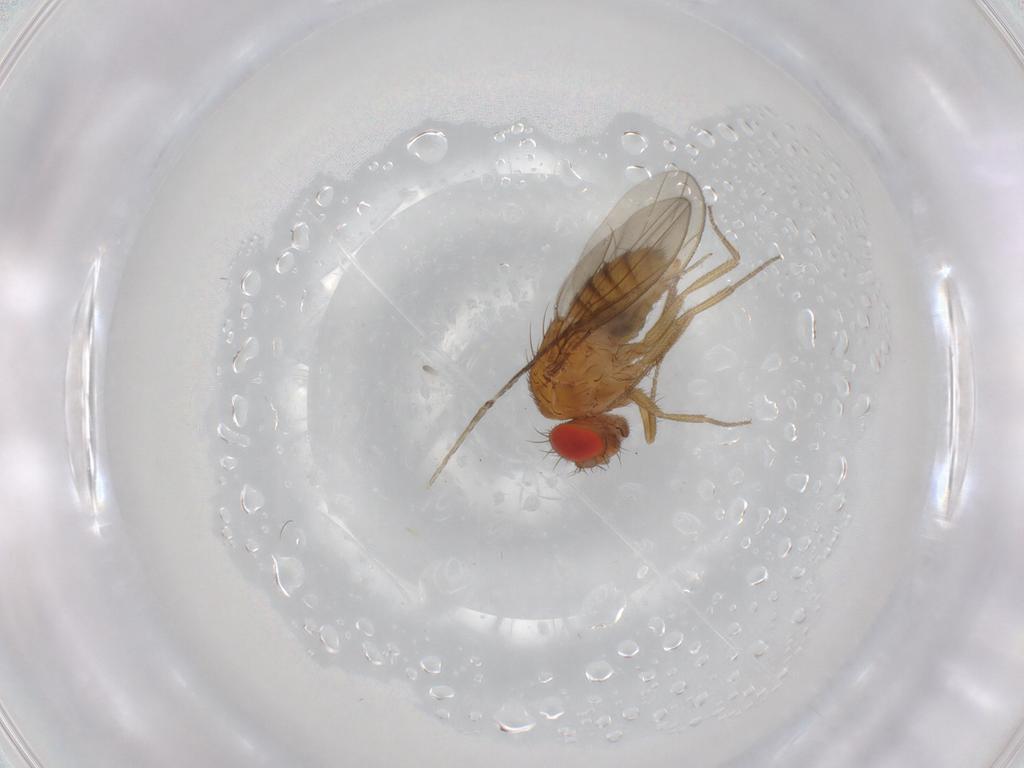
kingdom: Animalia
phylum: Arthropoda
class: Insecta
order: Diptera
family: Drosophilidae
